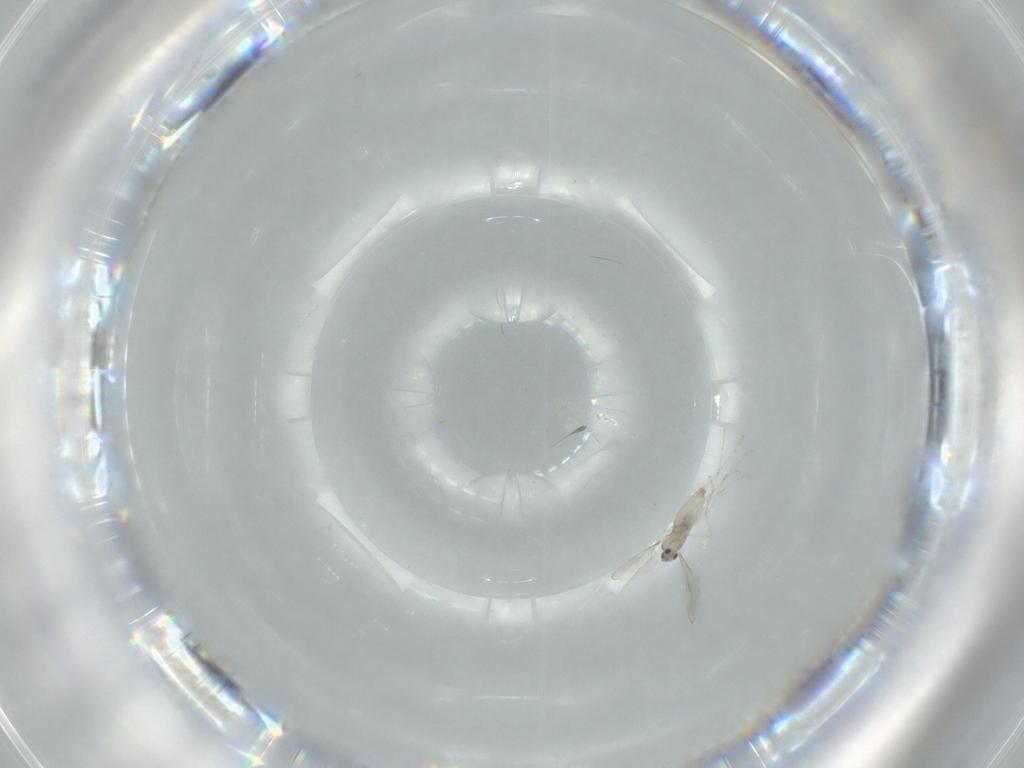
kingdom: Animalia
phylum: Arthropoda
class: Insecta
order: Diptera
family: Cecidomyiidae
